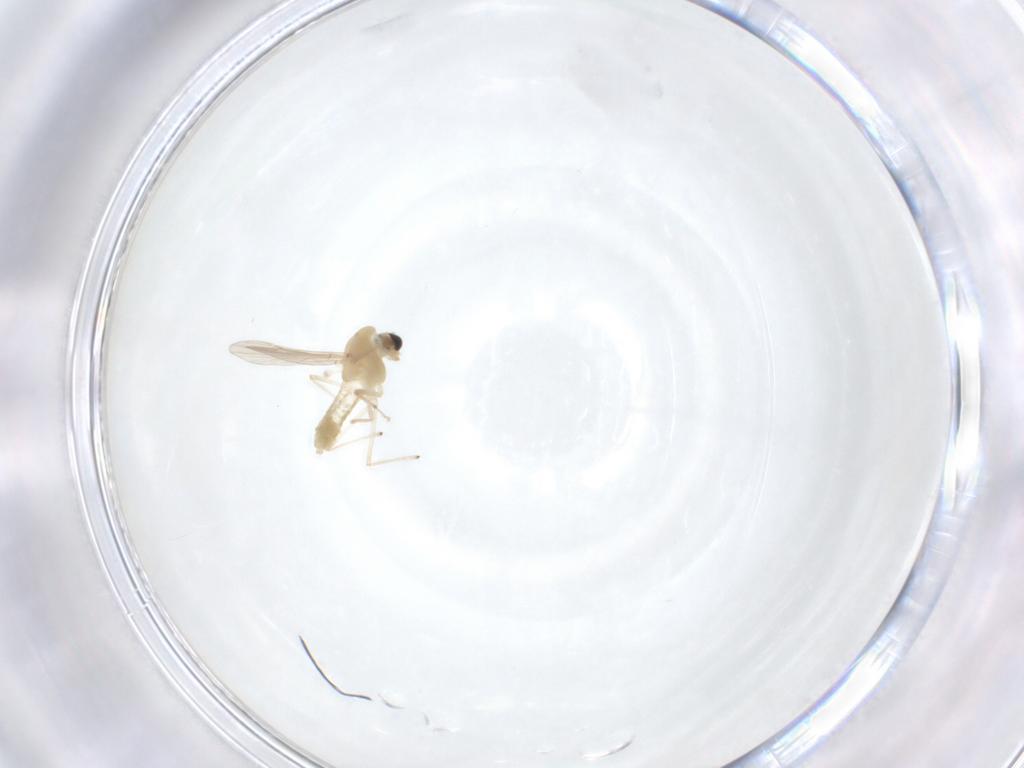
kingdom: Animalia
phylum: Arthropoda
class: Insecta
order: Diptera
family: Chironomidae
